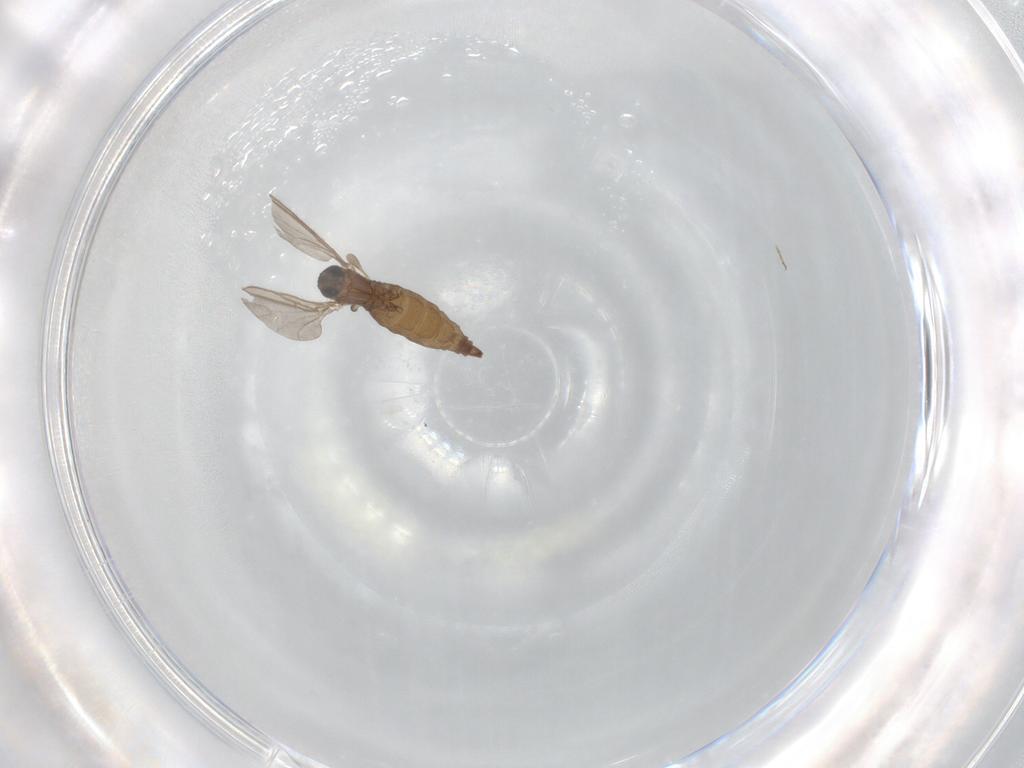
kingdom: Animalia
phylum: Arthropoda
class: Insecta
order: Diptera
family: Ceratopogonidae
